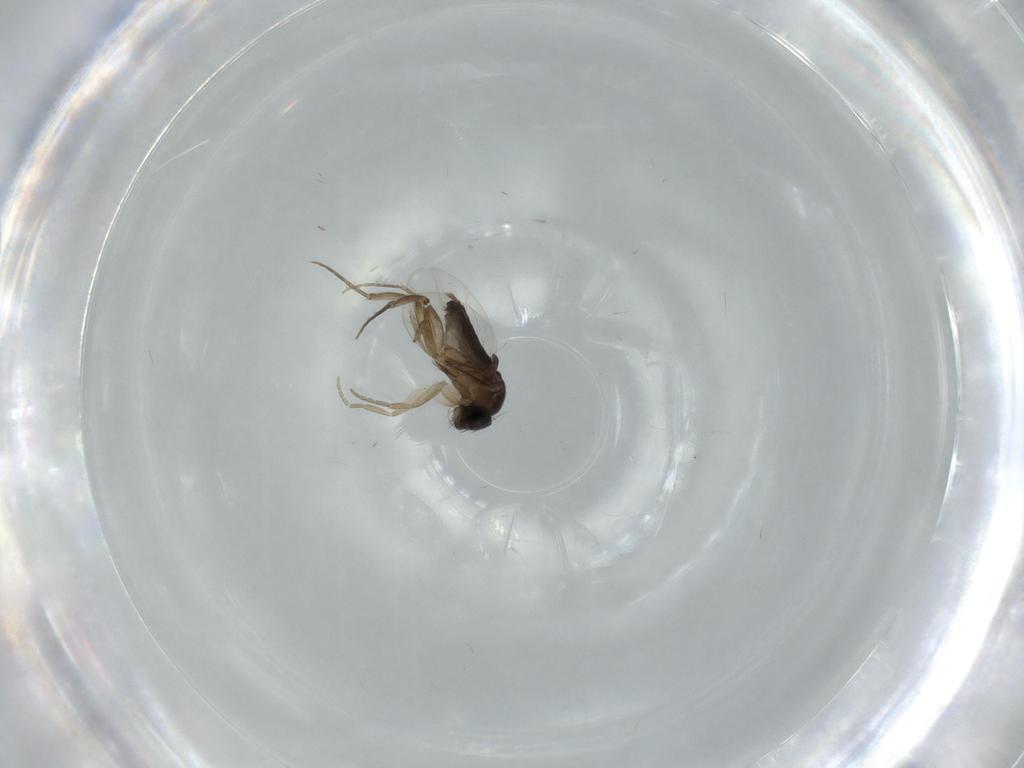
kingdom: Animalia
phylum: Arthropoda
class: Insecta
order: Diptera
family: Phoridae
